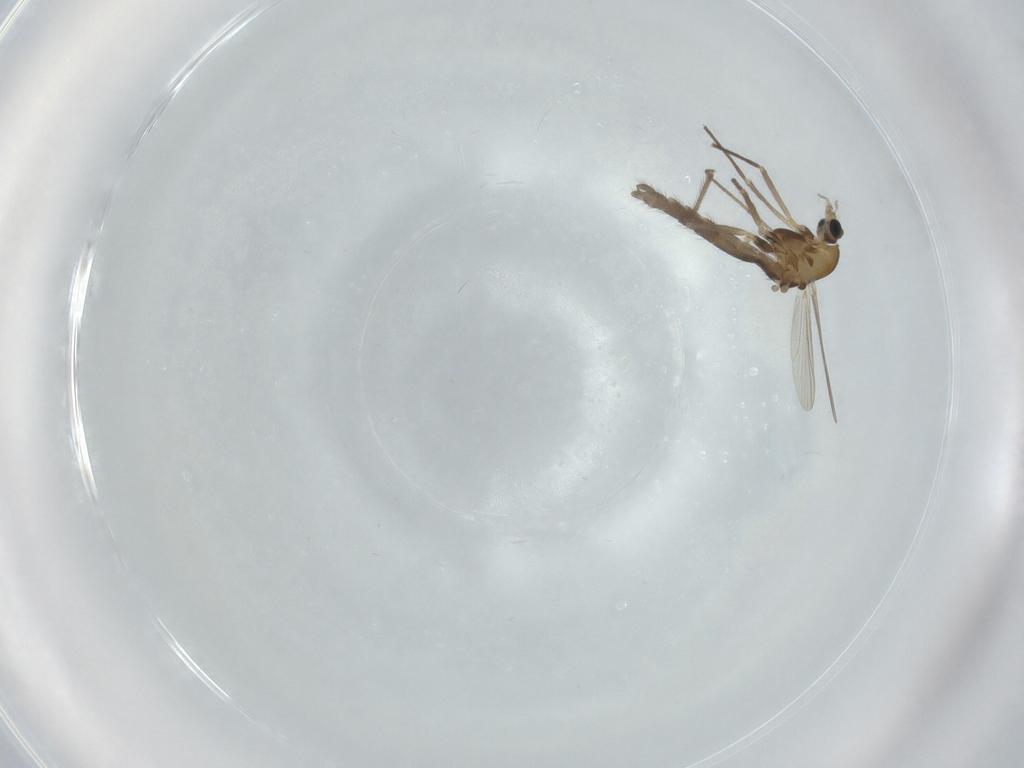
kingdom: Animalia
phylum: Arthropoda
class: Insecta
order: Diptera
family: Chironomidae
